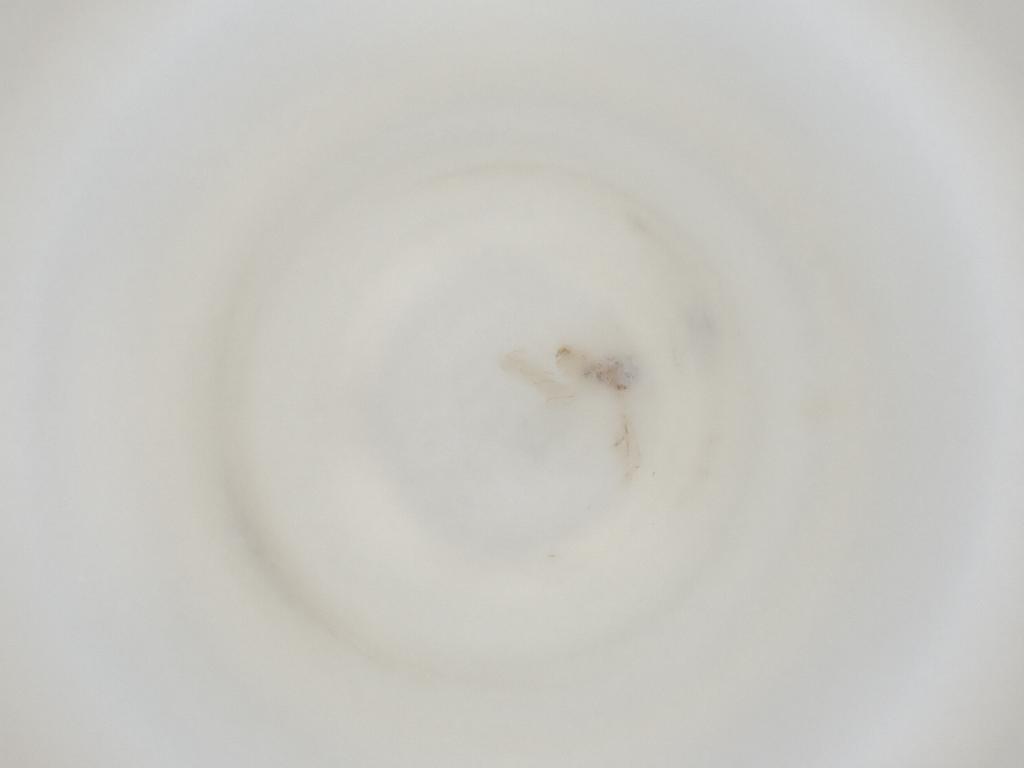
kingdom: Animalia
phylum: Arthropoda
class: Insecta
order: Diptera
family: Cecidomyiidae
